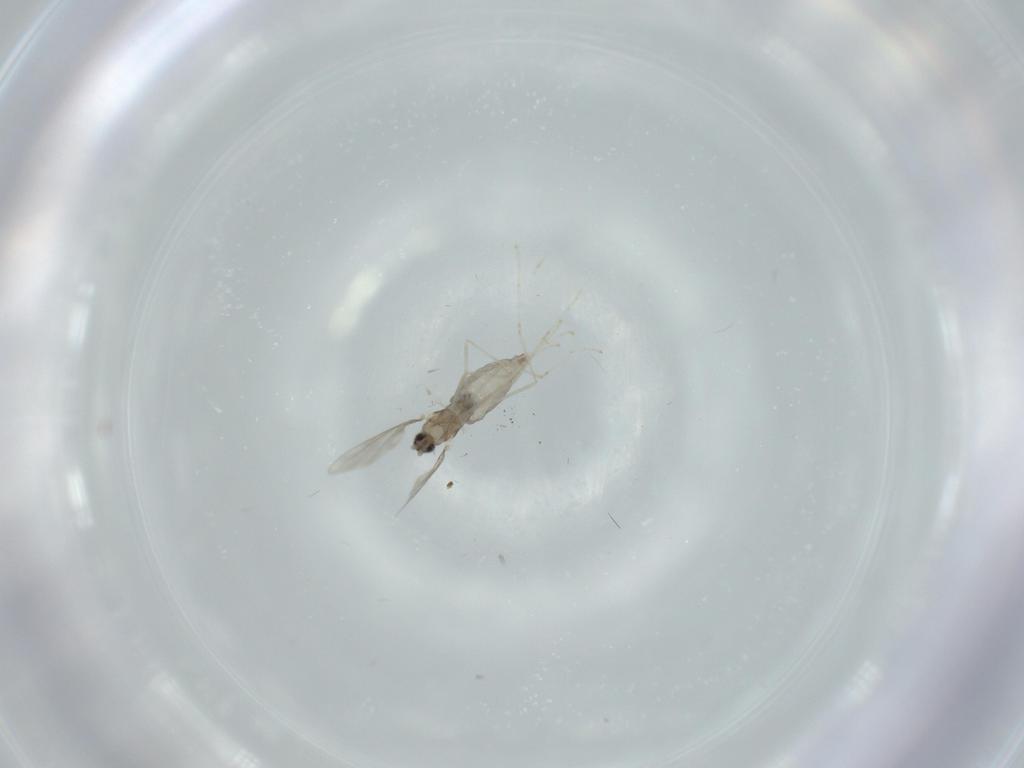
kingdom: Animalia
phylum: Arthropoda
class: Insecta
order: Diptera
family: Cecidomyiidae
